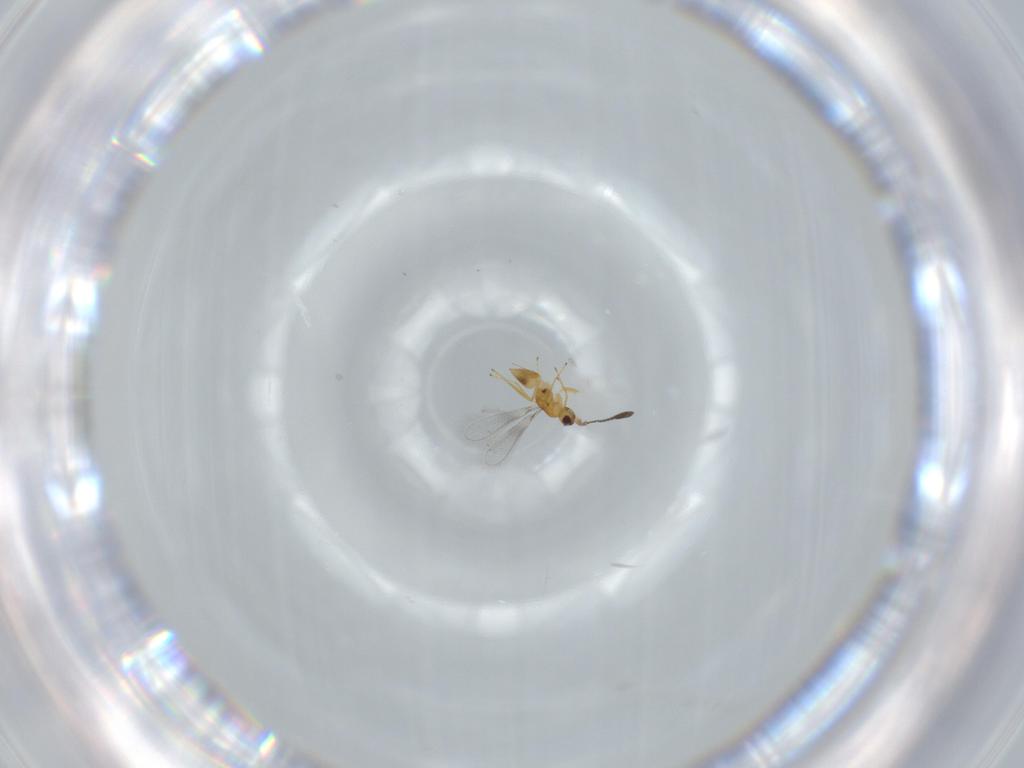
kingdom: Animalia
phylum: Arthropoda
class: Insecta
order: Hymenoptera
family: Mymaridae
